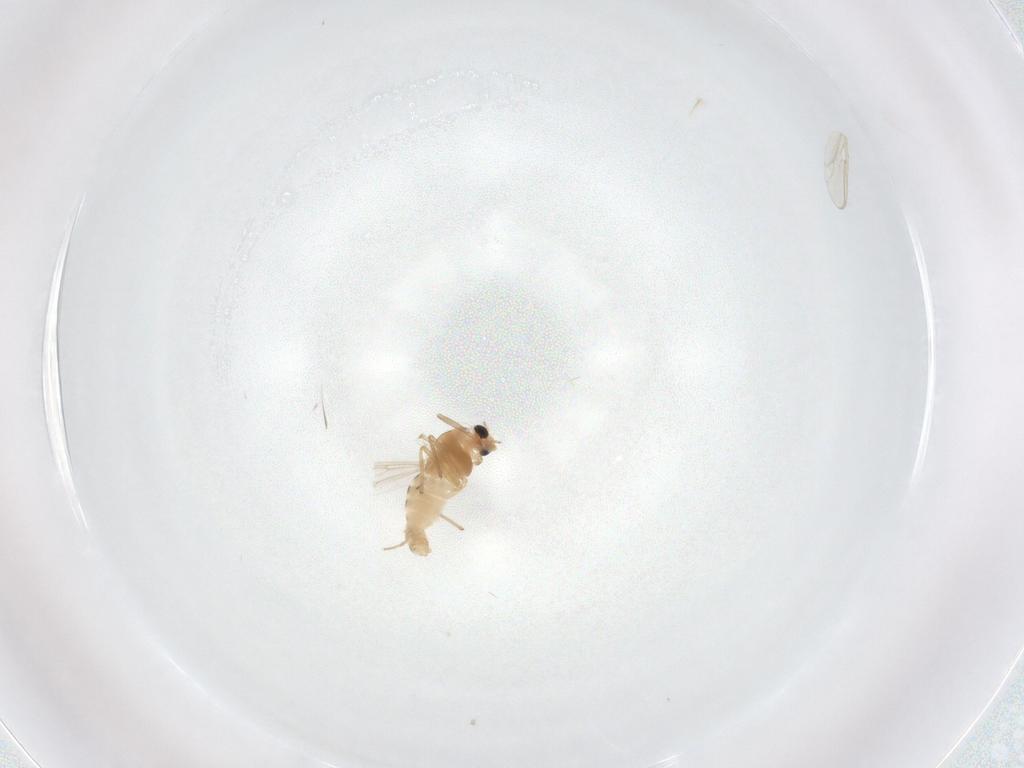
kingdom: Animalia
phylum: Arthropoda
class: Insecta
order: Diptera
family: Chironomidae
